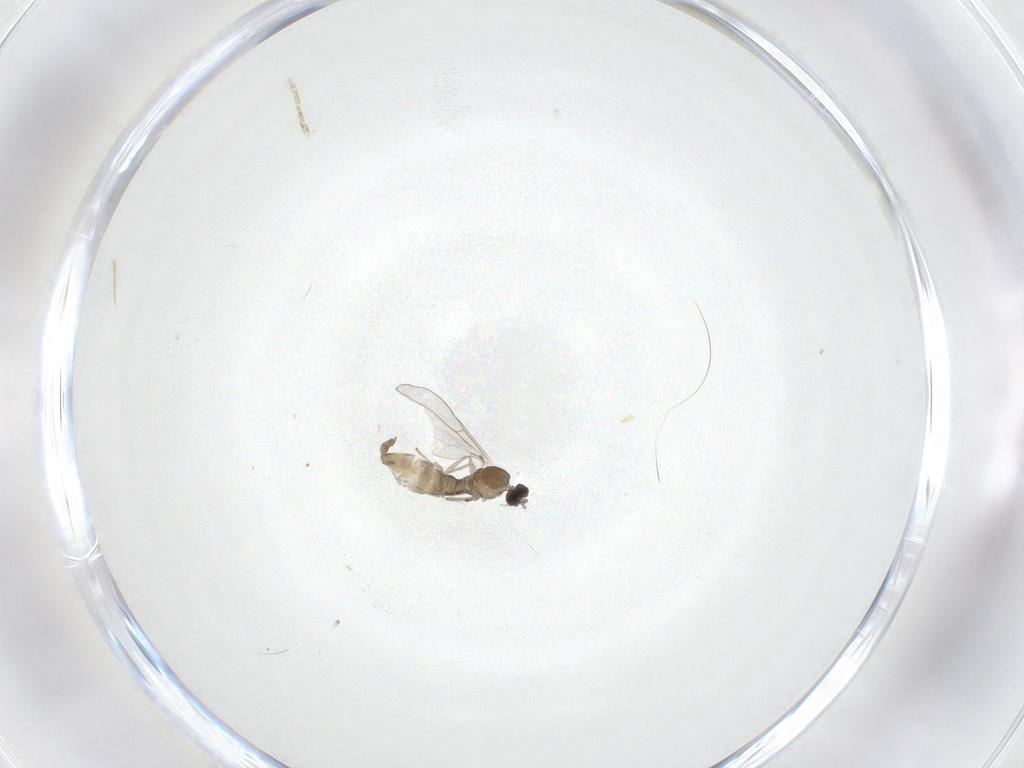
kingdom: Animalia
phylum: Arthropoda
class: Insecta
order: Diptera
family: Cecidomyiidae
